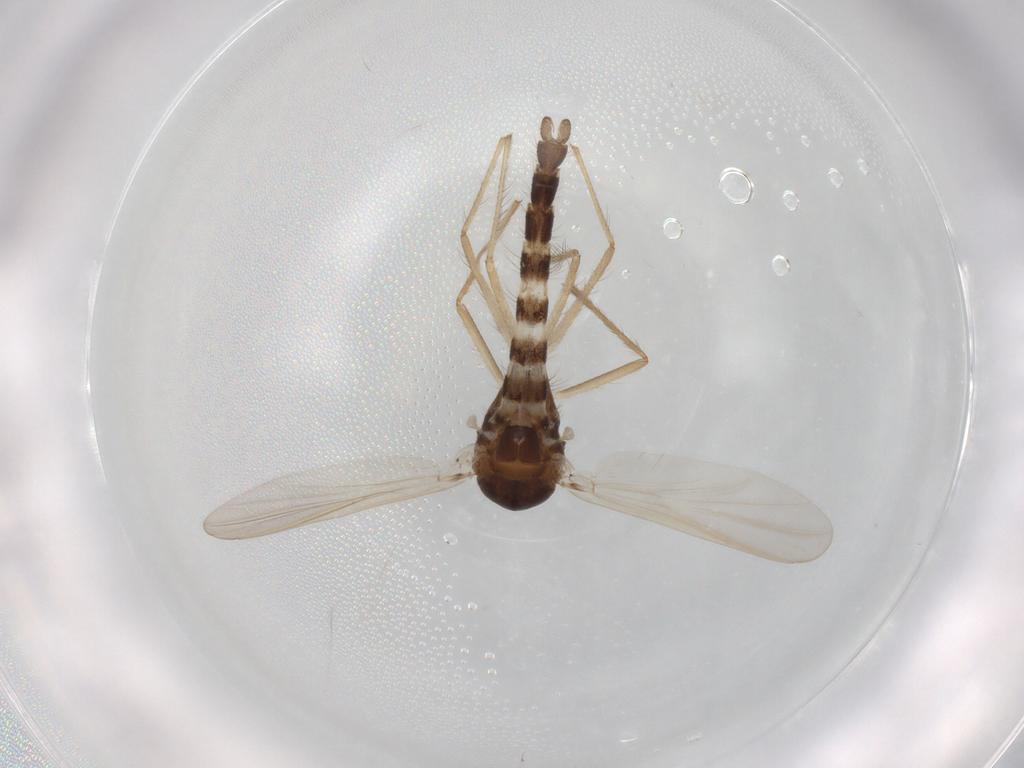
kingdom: Animalia
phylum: Arthropoda
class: Insecta
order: Diptera
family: Chironomidae
